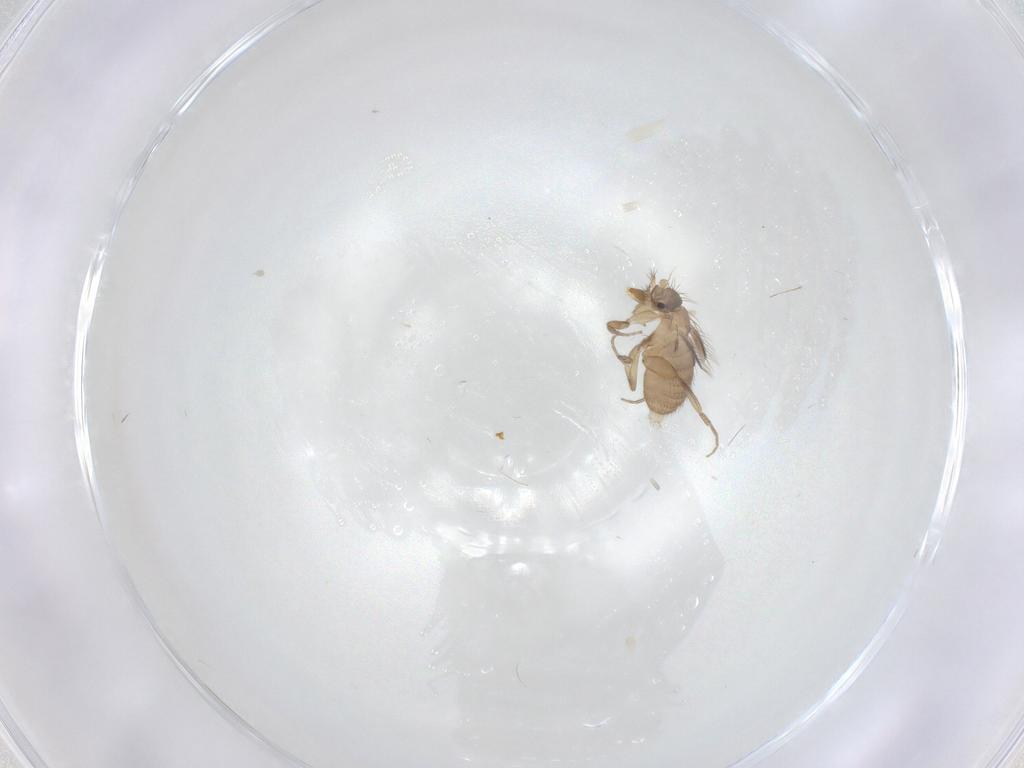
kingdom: Animalia
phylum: Arthropoda
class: Insecta
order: Diptera
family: Phoridae
